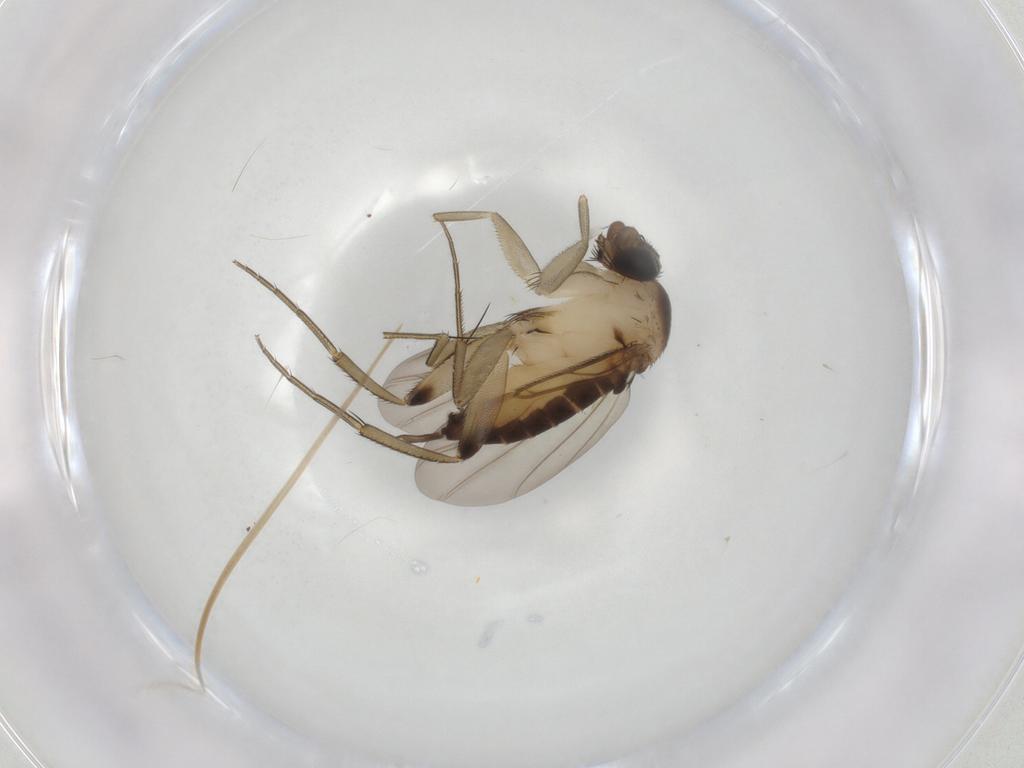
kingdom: Animalia
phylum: Arthropoda
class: Insecta
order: Diptera
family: Phoridae
